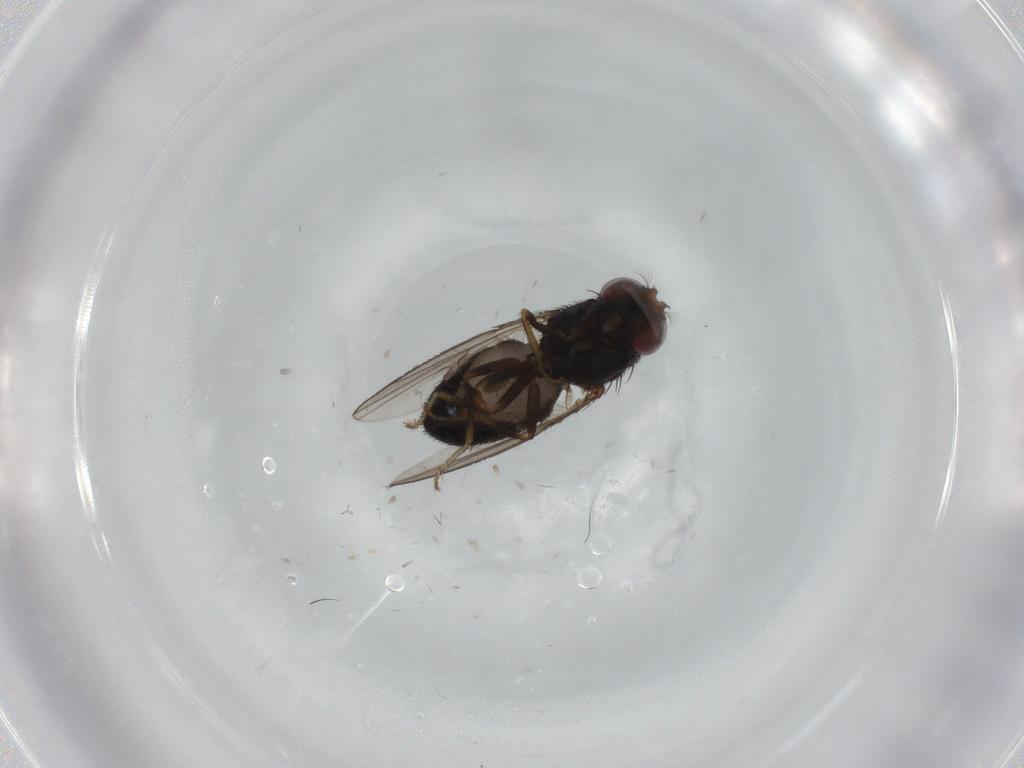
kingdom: Animalia
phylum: Arthropoda
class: Insecta
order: Diptera
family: Ephydridae
